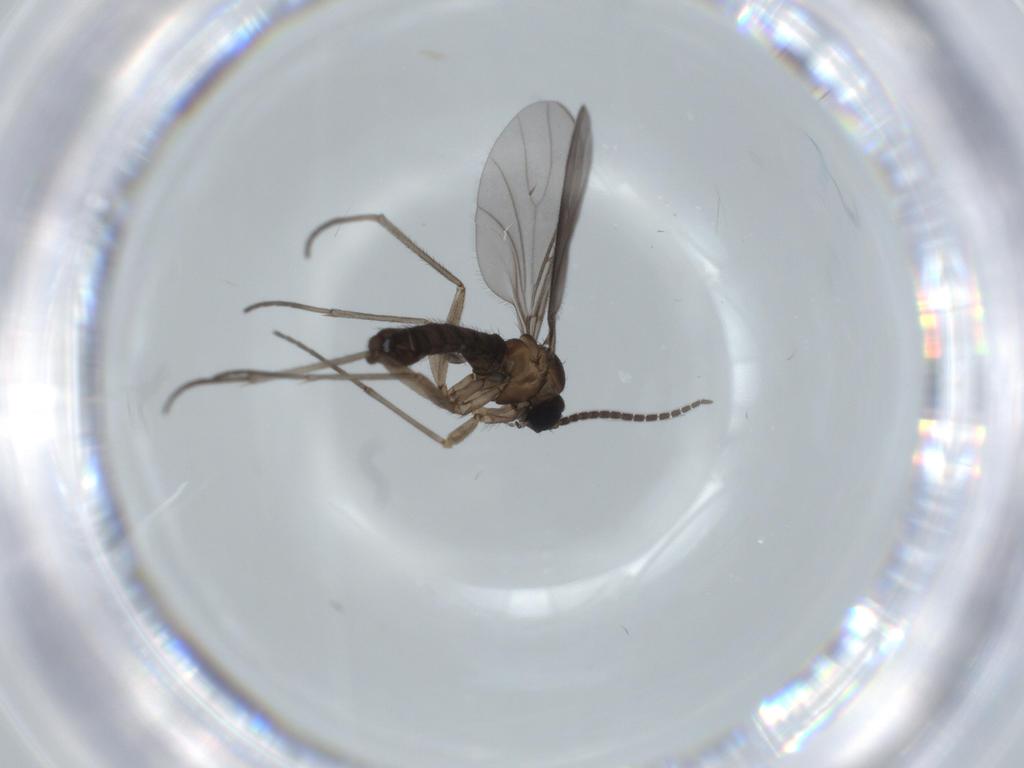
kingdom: Animalia
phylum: Arthropoda
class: Insecta
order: Diptera
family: Sciaridae
